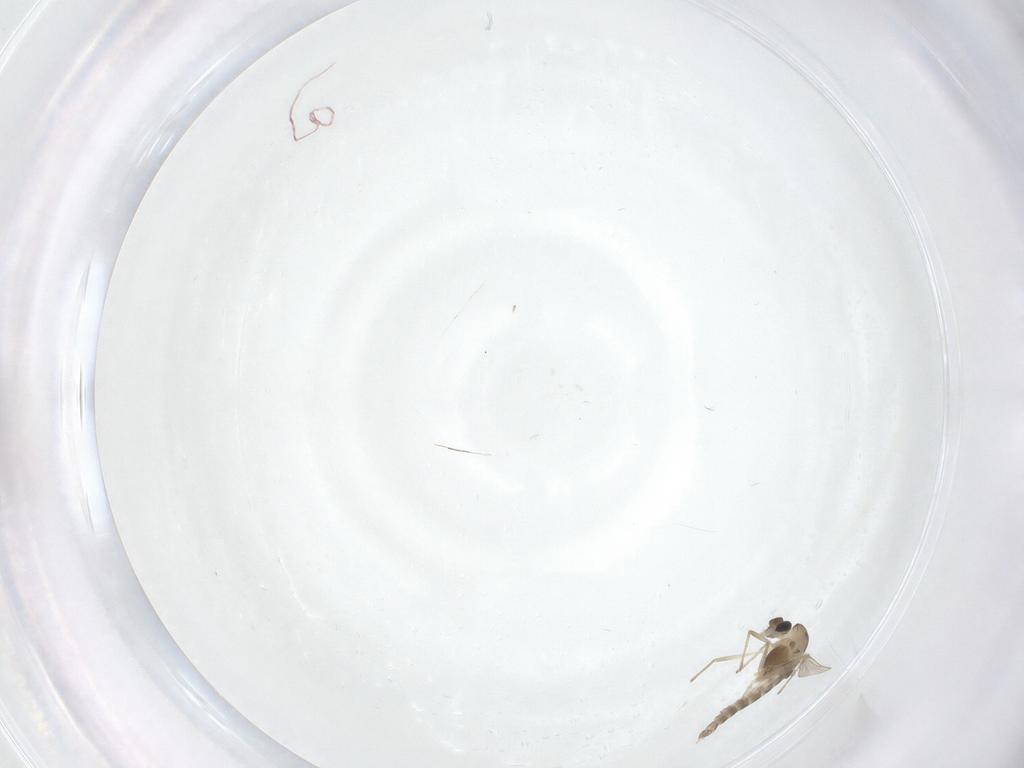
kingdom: Animalia
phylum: Arthropoda
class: Insecta
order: Diptera
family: Chironomidae
